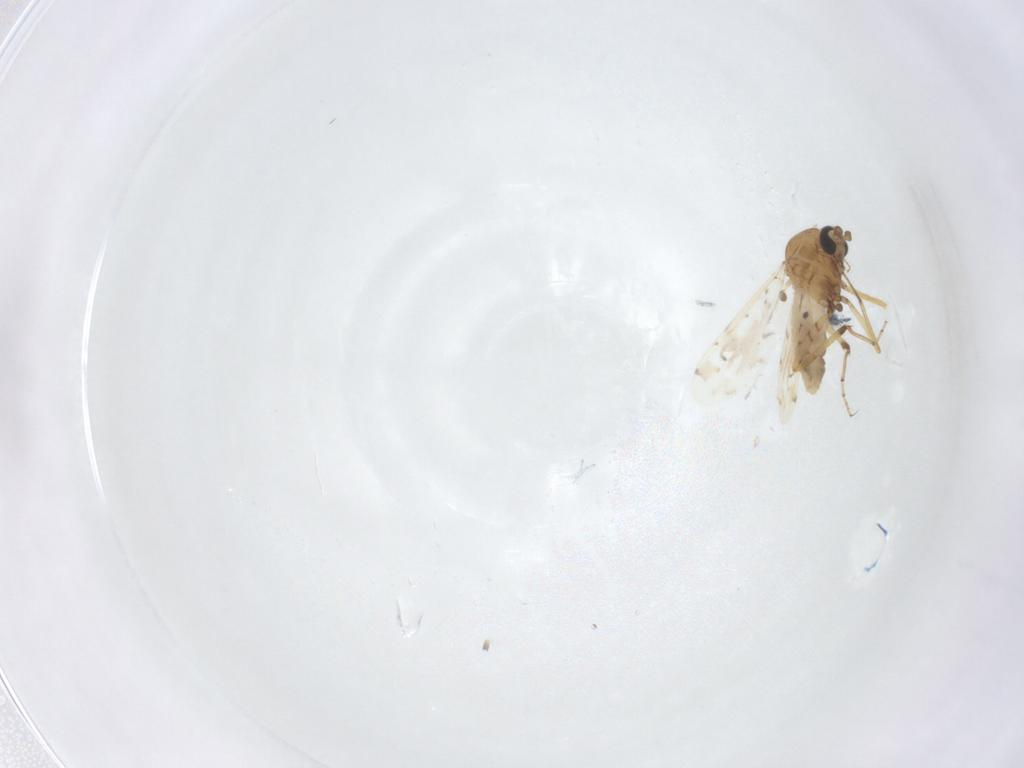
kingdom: Animalia
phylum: Arthropoda
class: Insecta
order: Diptera
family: Ceratopogonidae
